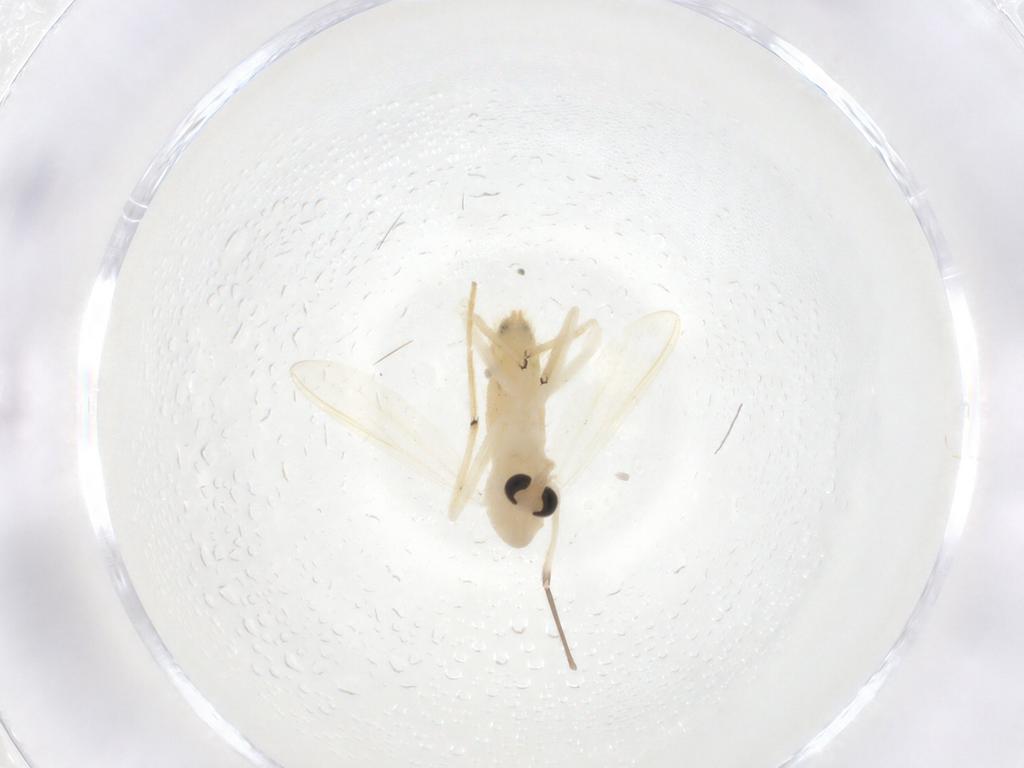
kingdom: Animalia
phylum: Arthropoda
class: Insecta
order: Diptera
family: Chironomidae
